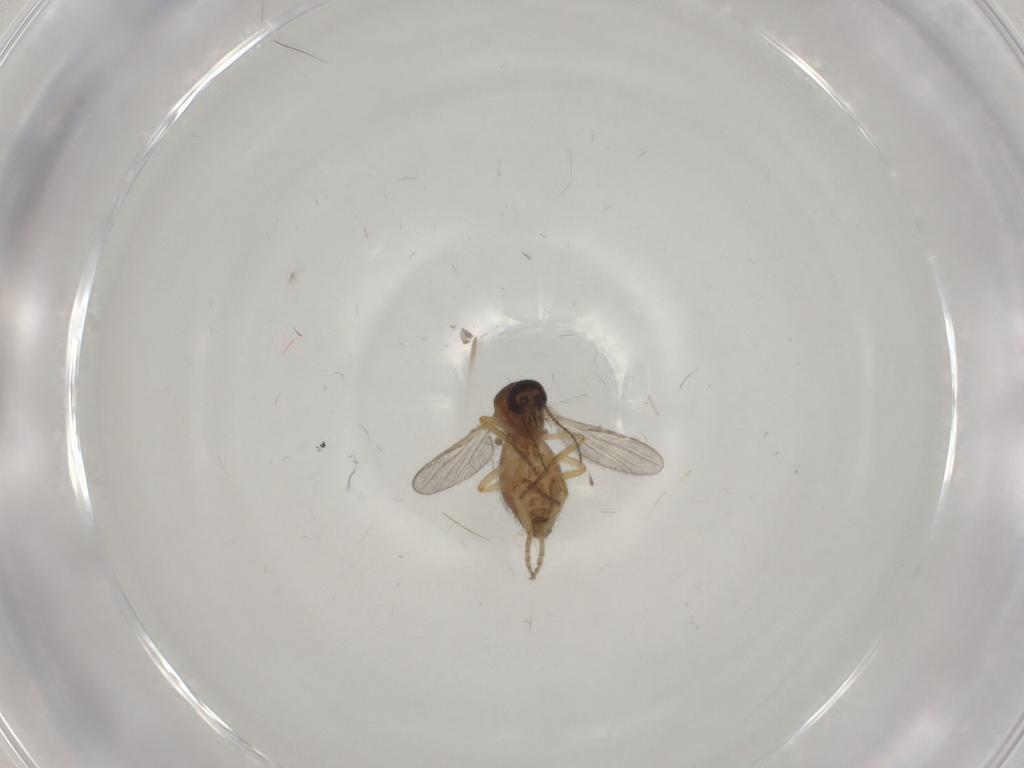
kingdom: Animalia
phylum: Arthropoda
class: Insecta
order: Diptera
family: Ceratopogonidae
